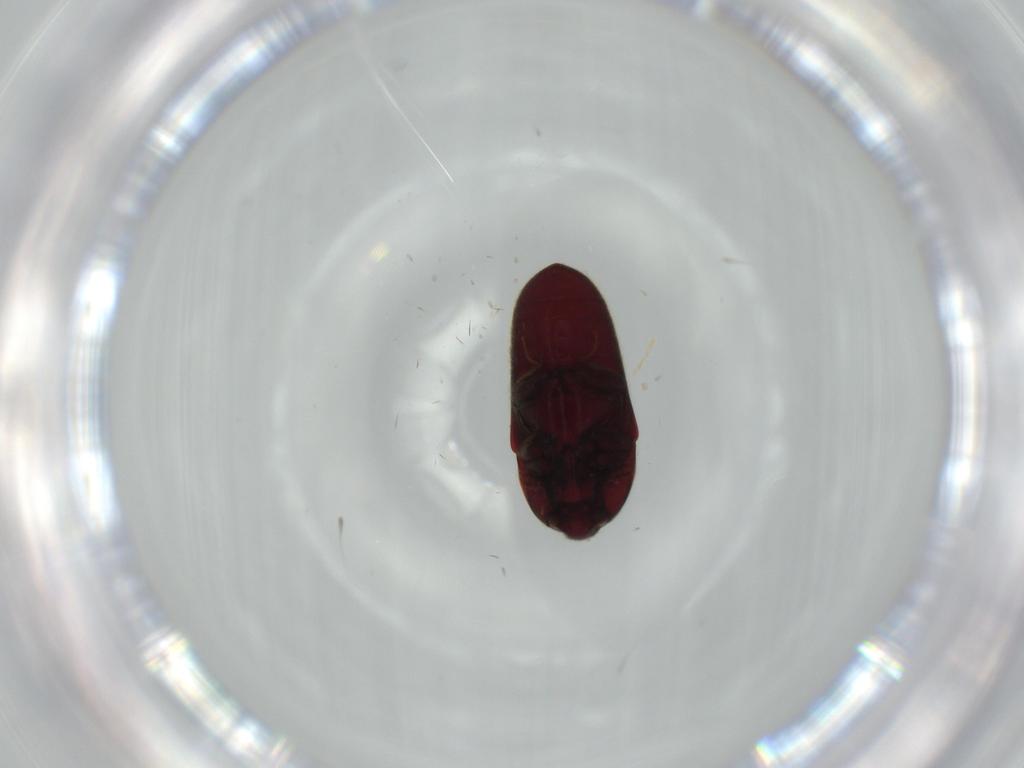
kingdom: Animalia
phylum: Arthropoda
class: Insecta
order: Coleoptera
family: Throscidae
